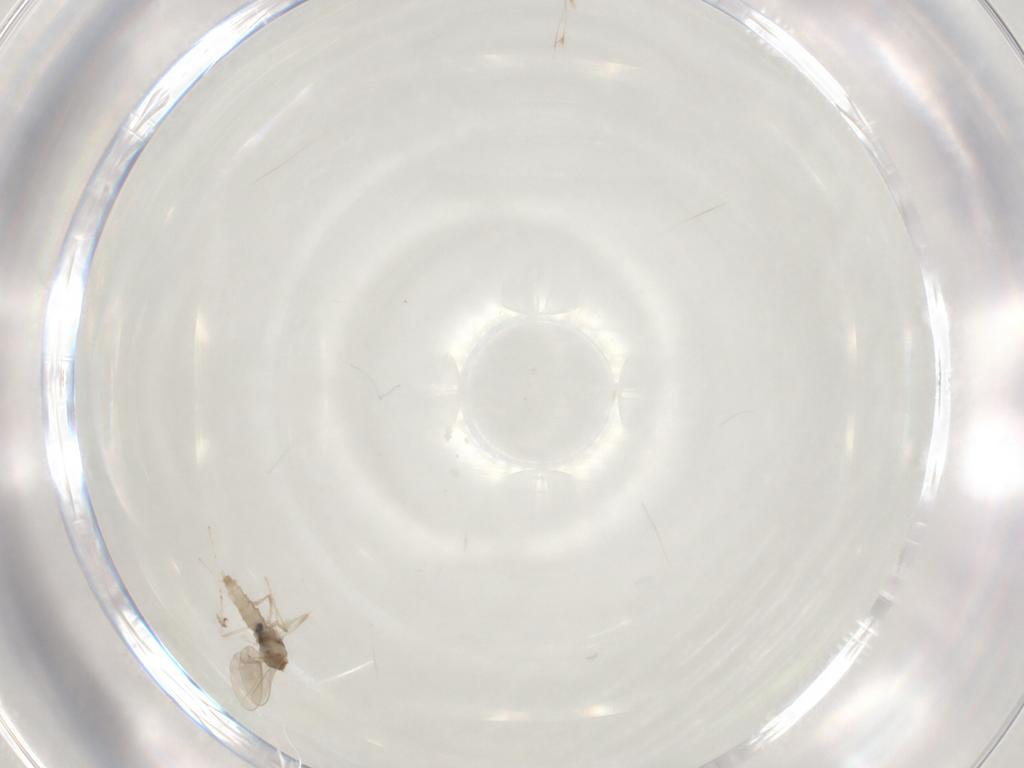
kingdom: Animalia
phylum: Arthropoda
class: Insecta
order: Diptera
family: Cecidomyiidae
